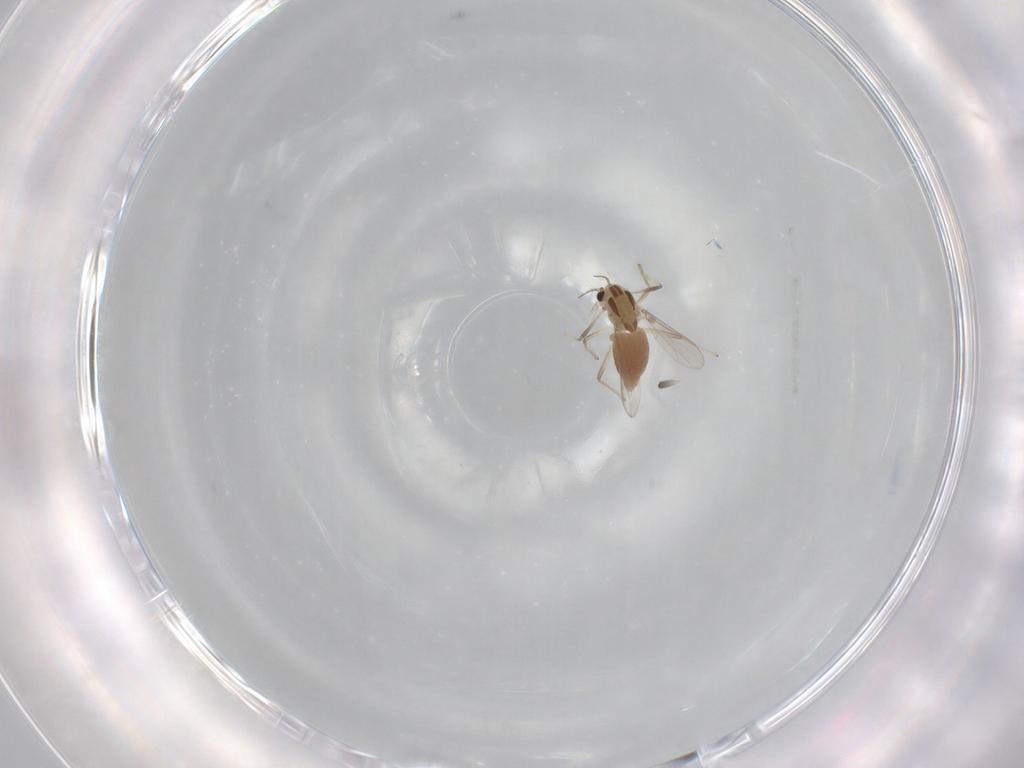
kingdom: Animalia
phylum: Arthropoda
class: Insecta
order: Diptera
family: Chironomidae
